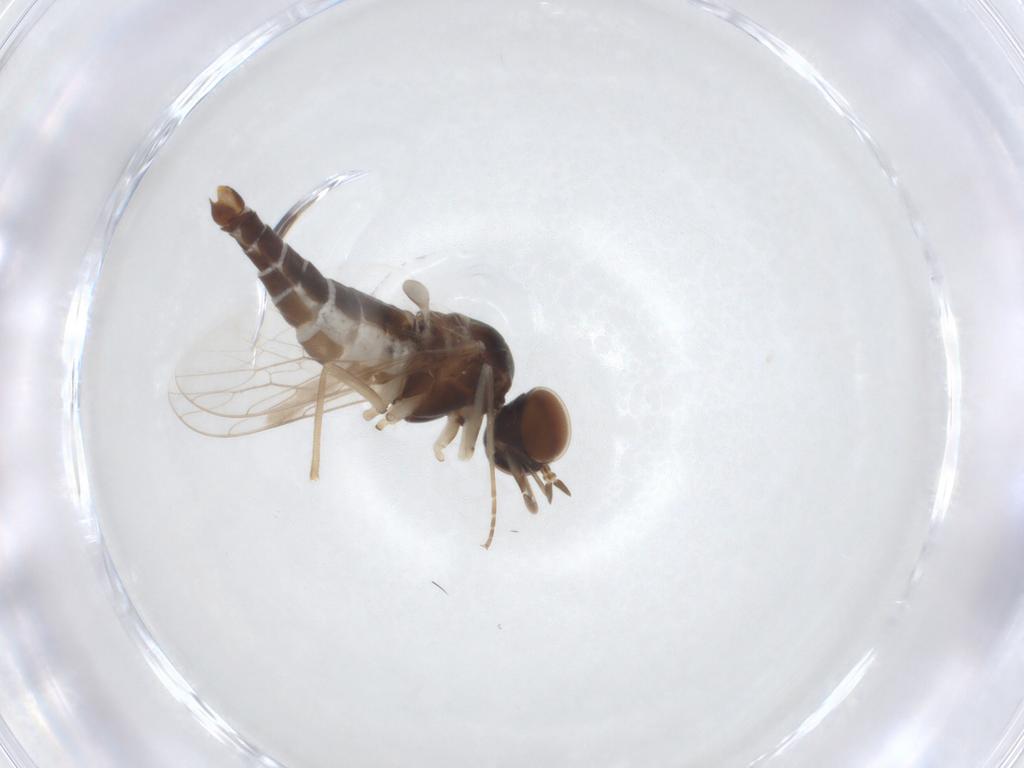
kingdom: Animalia
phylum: Arthropoda
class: Insecta
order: Diptera
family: Scenopinidae
